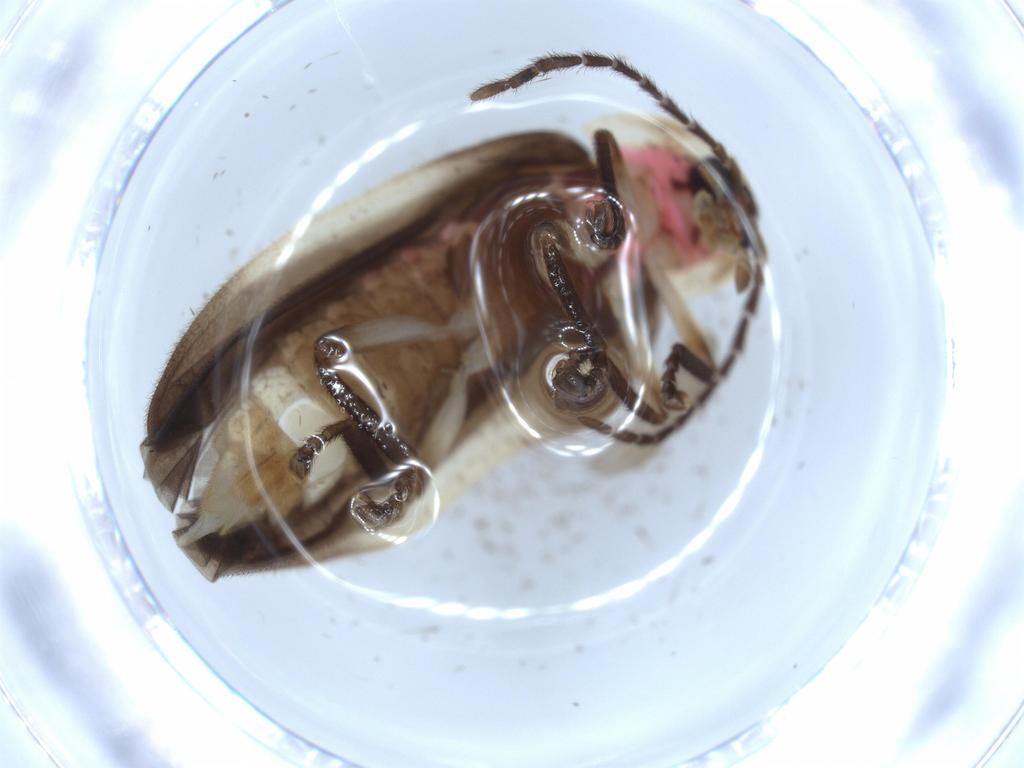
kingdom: Animalia
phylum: Arthropoda
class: Insecta
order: Coleoptera
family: Lampyridae
